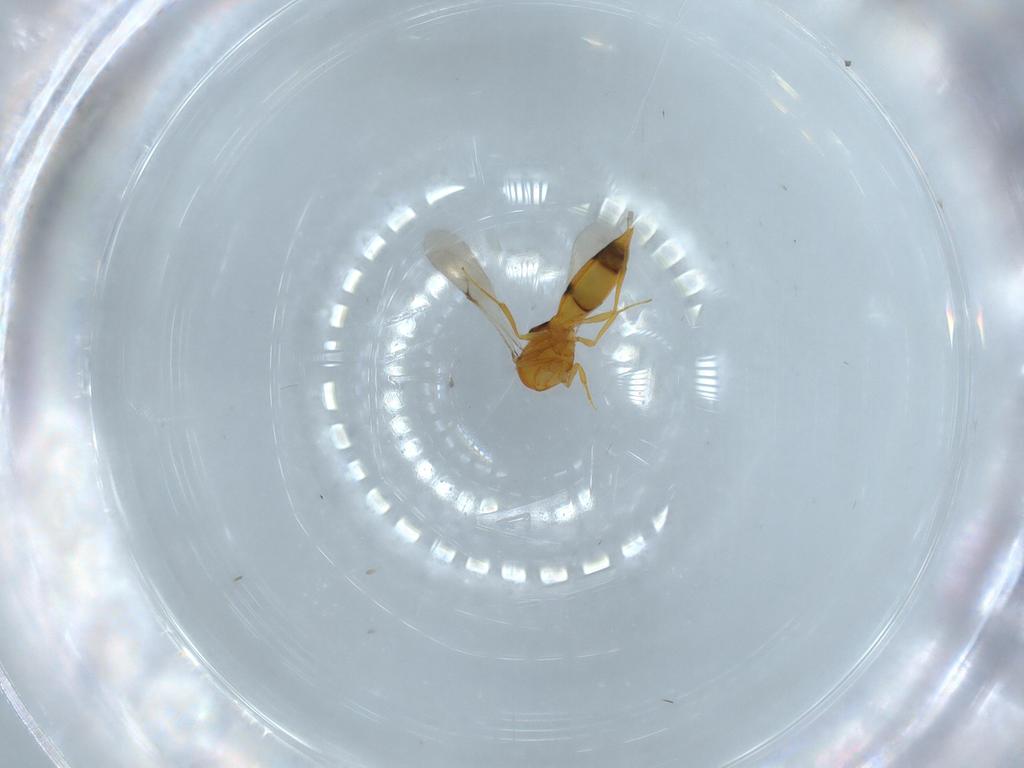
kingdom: Animalia
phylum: Arthropoda
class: Insecta
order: Hymenoptera
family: Scelionidae
